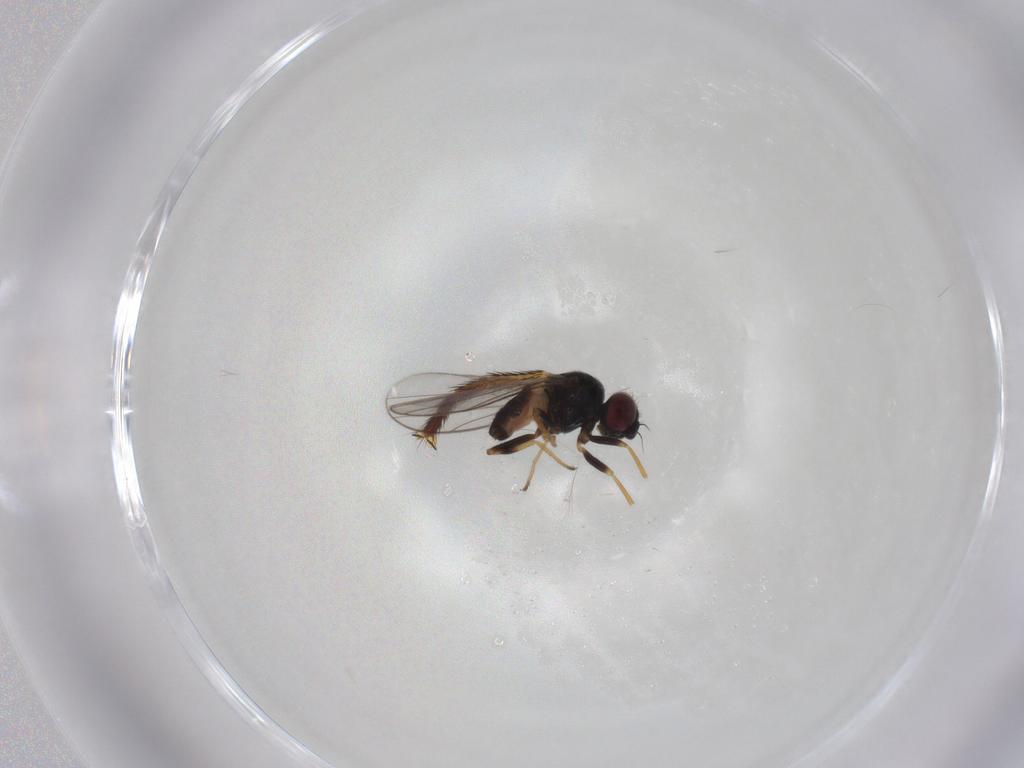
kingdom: Animalia
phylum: Arthropoda
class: Insecta
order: Diptera
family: Chloropidae
